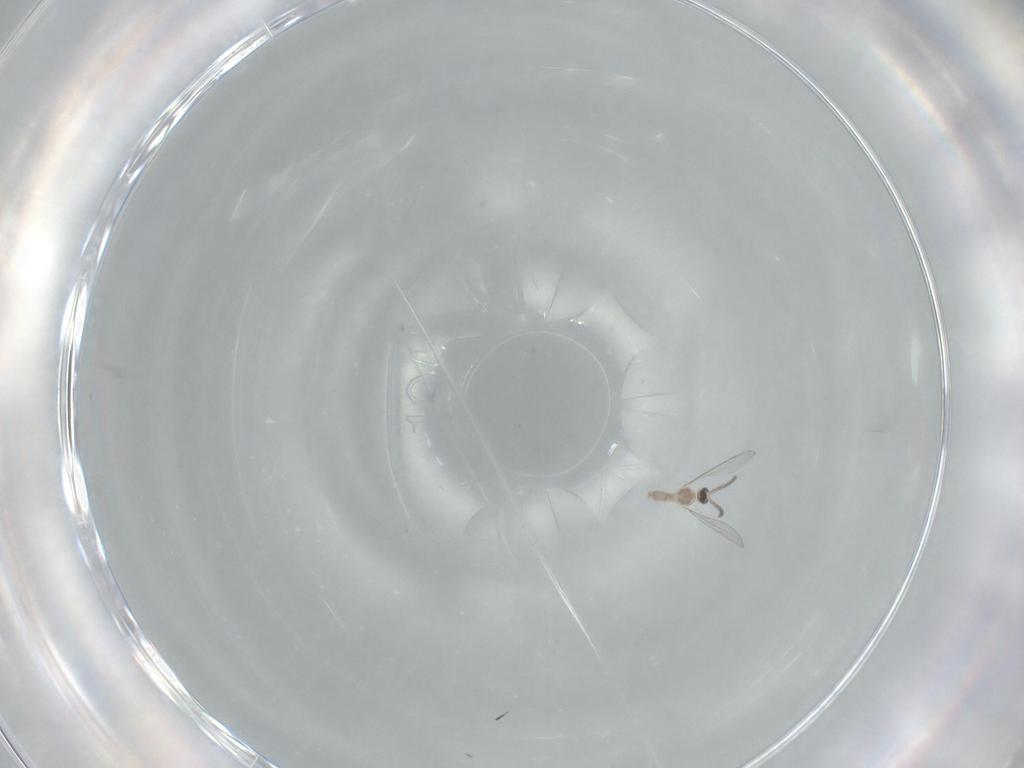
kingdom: Animalia
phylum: Arthropoda
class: Insecta
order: Diptera
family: Cecidomyiidae
